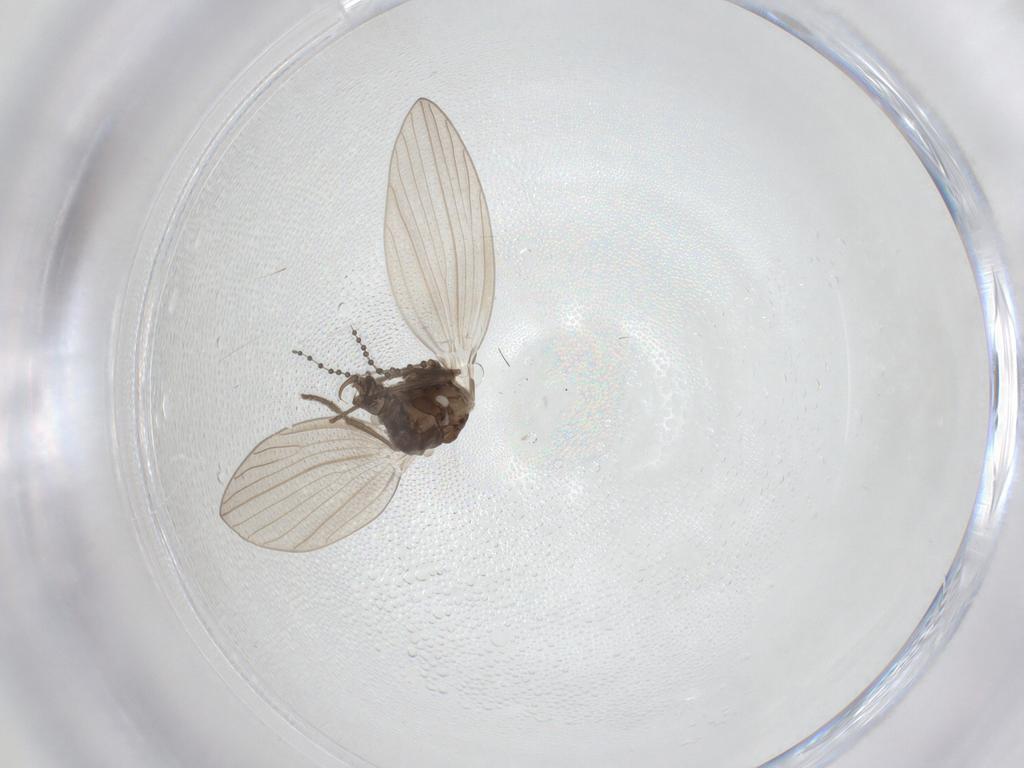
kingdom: Animalia
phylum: Arthropoda
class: Insecta
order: Diptera
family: Psychodidae
